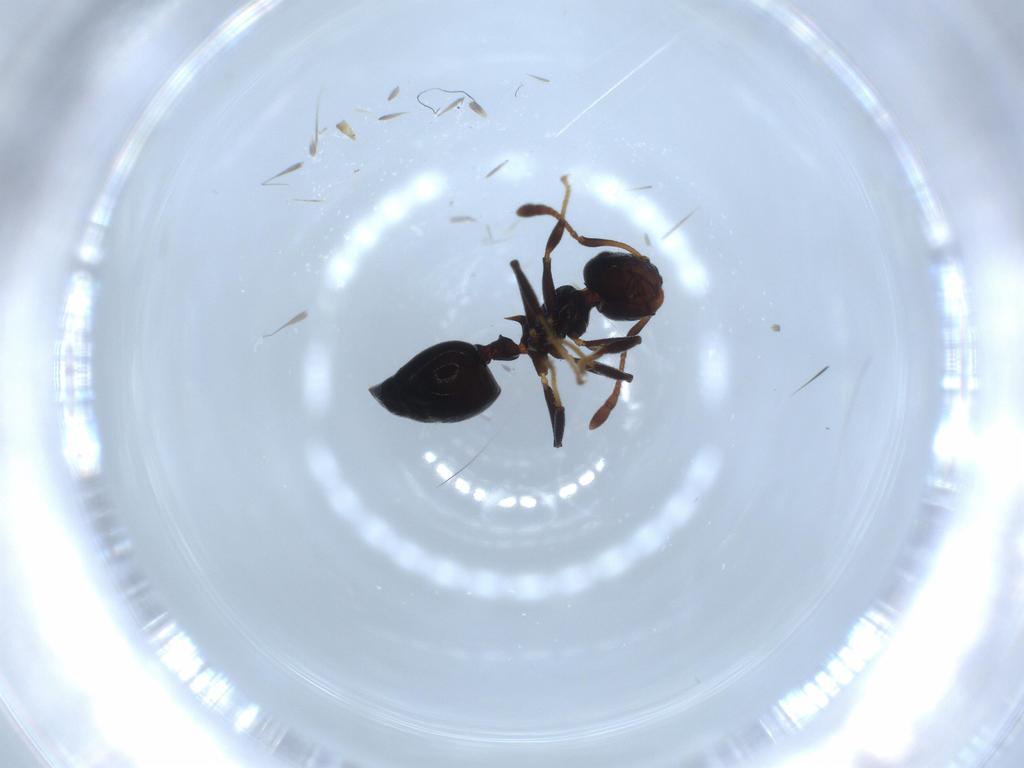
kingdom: Animalia
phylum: Arthropoda
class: Insecta
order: Hymenoptera
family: Formicidae
